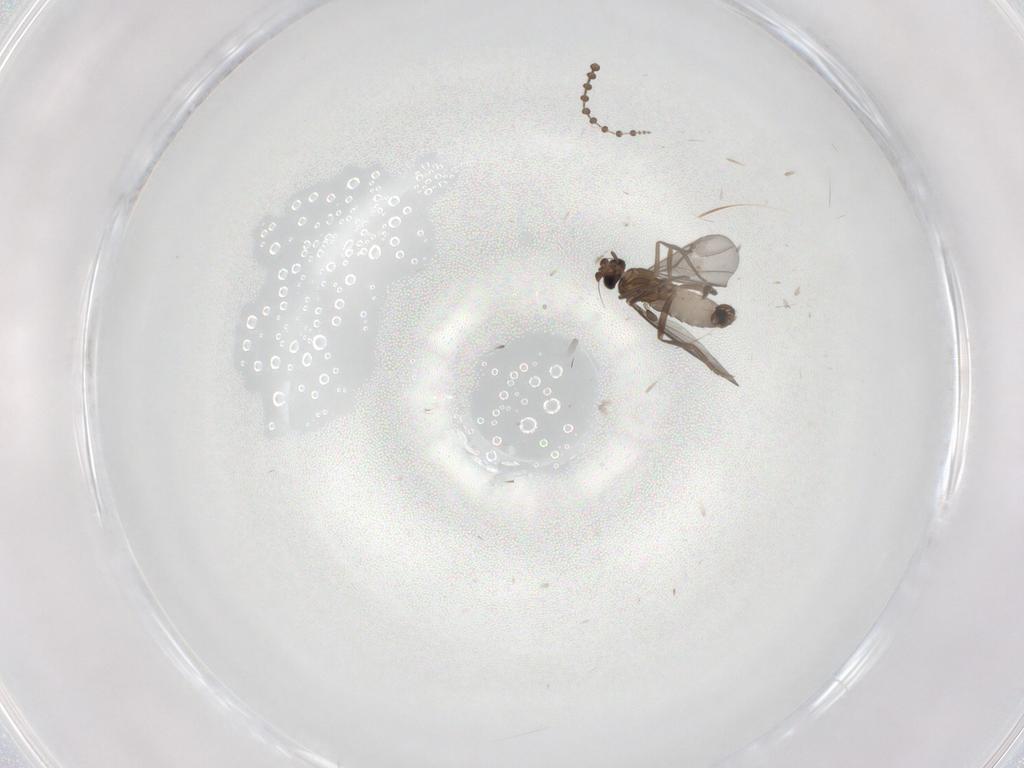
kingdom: Animalia
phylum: Arthropoda
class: Insecta
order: Diptera
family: Phoridae
